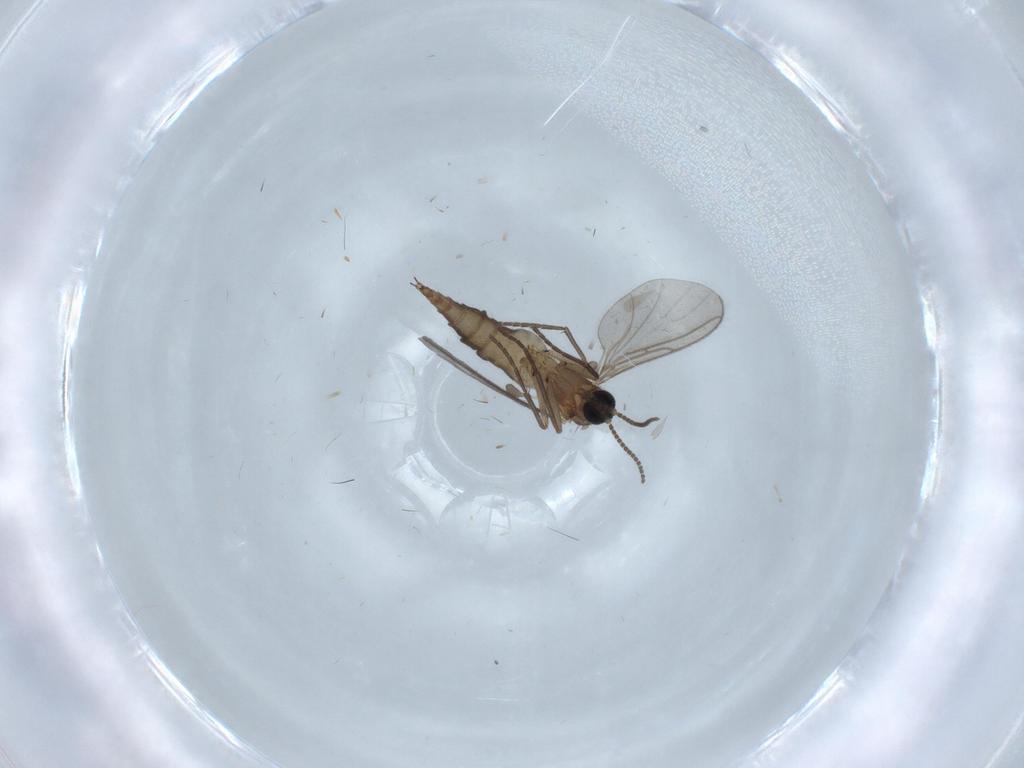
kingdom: Animalia
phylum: Arthropoda
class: Insecta
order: Diptera
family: Sciaridae
